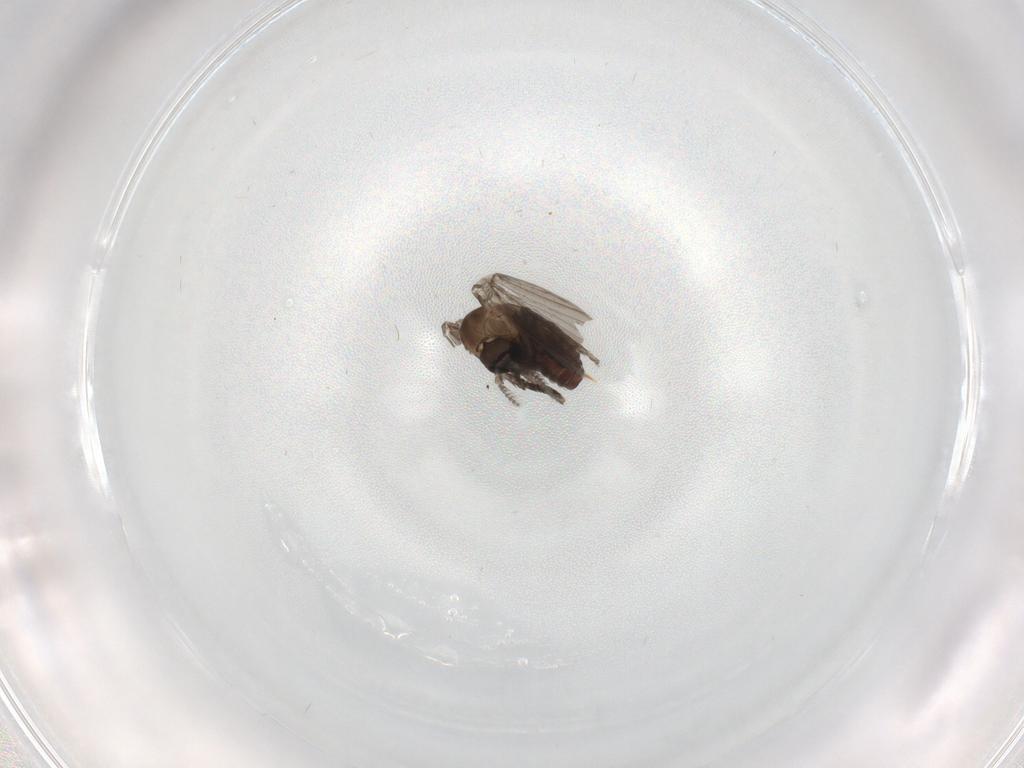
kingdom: Animalia
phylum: Arthropoda
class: Insecta
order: Diptera
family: Psychodidae
